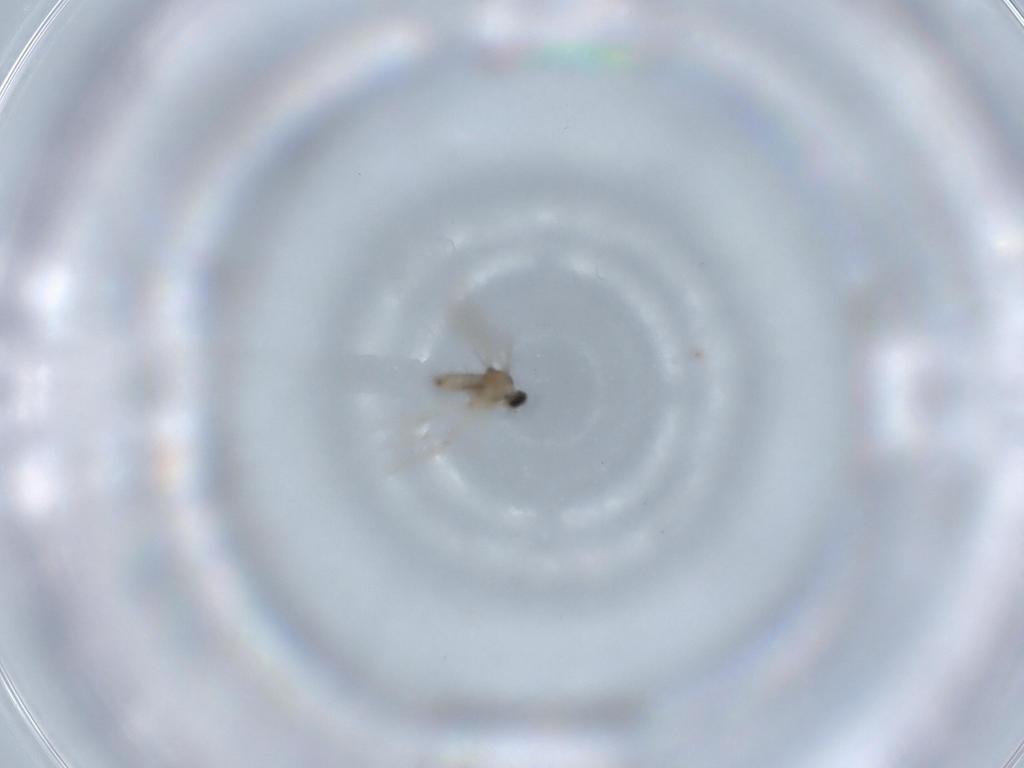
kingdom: Animalia
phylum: Arthropoda
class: Insecta
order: Diptera
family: Cecidomyiidae
